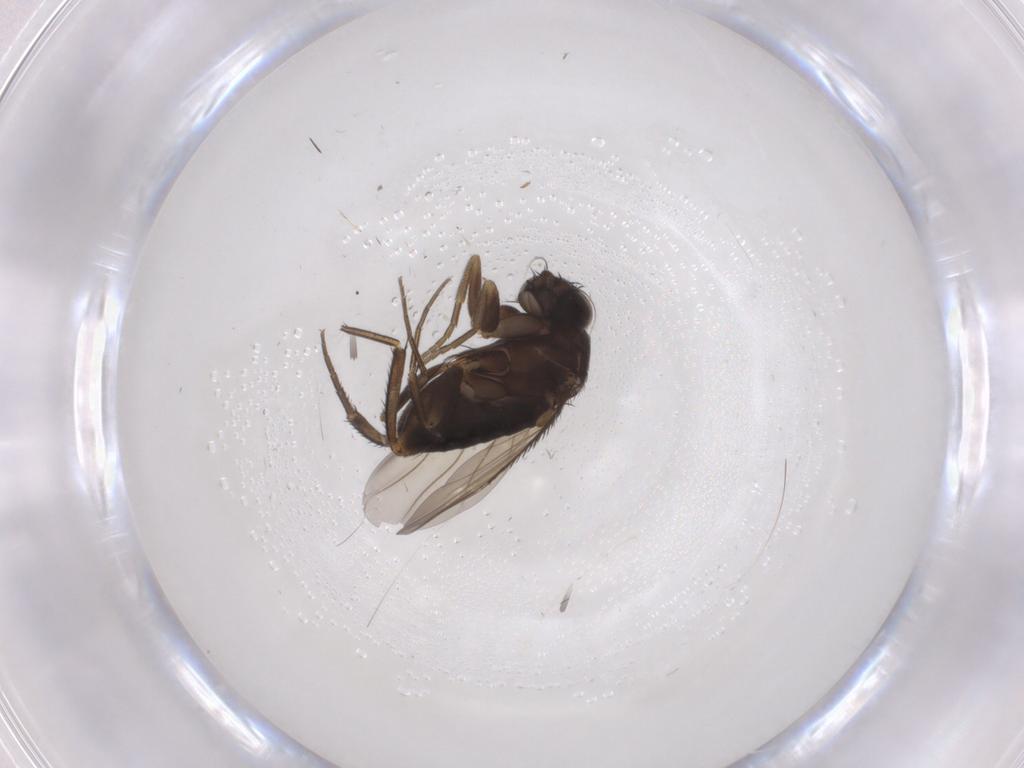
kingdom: Animalia
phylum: Arthropoda
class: Insecta
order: Diptera
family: Phoridae
